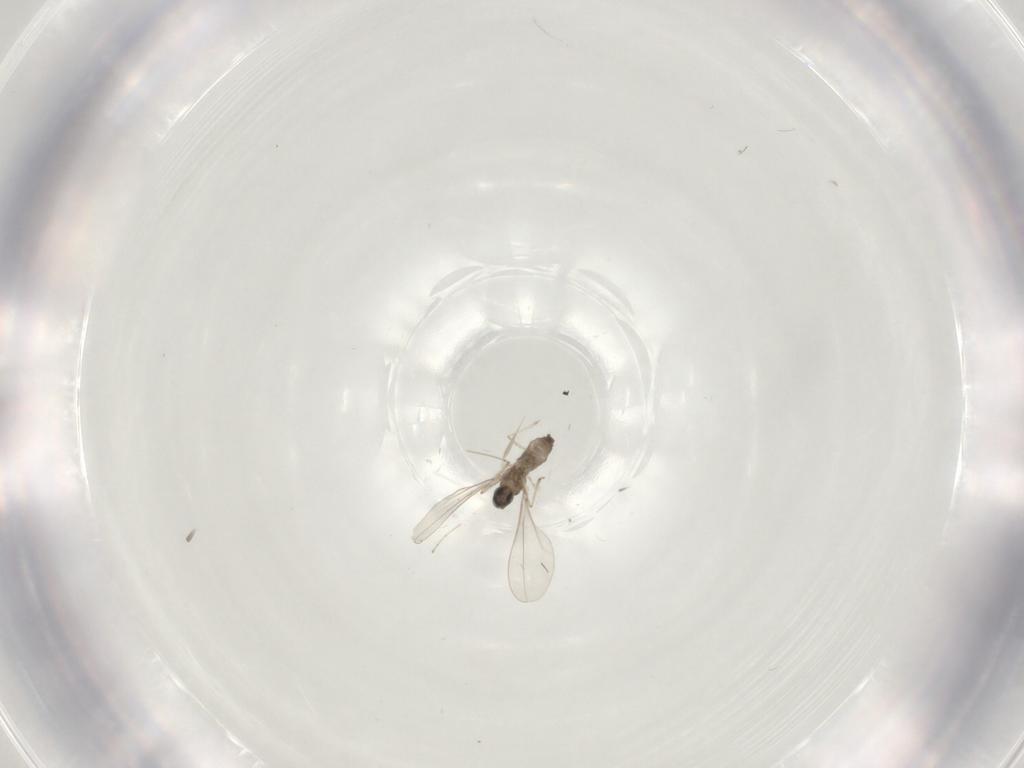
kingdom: Animalia
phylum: Arthropoda
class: Insecta
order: Diptera
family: Cecidomyiidae
